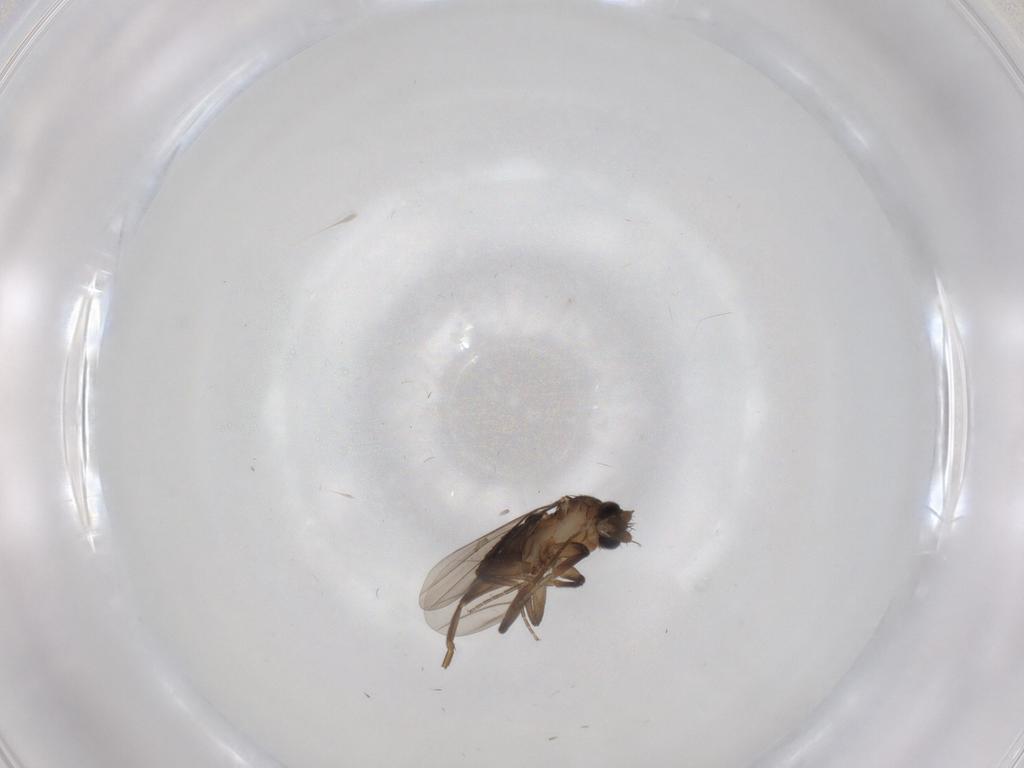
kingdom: Animalia
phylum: Arthropoda
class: Insecta
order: Diptera
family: Phoridae
